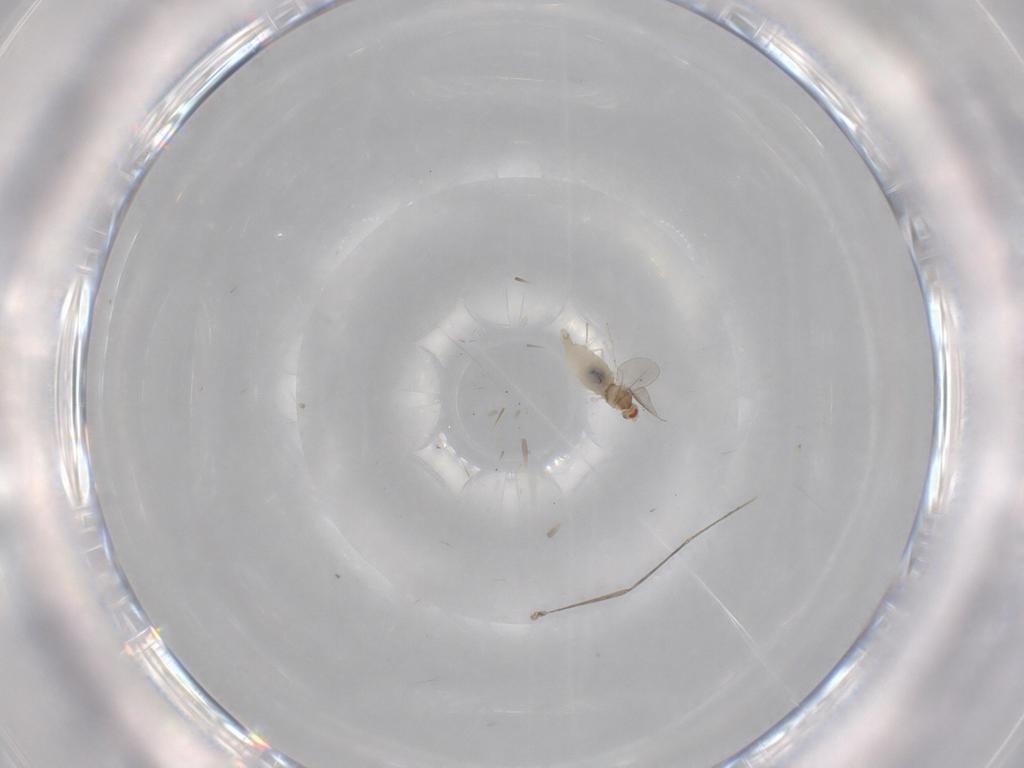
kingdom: Animalia
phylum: Arthropoda
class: Insecta
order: Diptera
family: Cecidomyiidae
